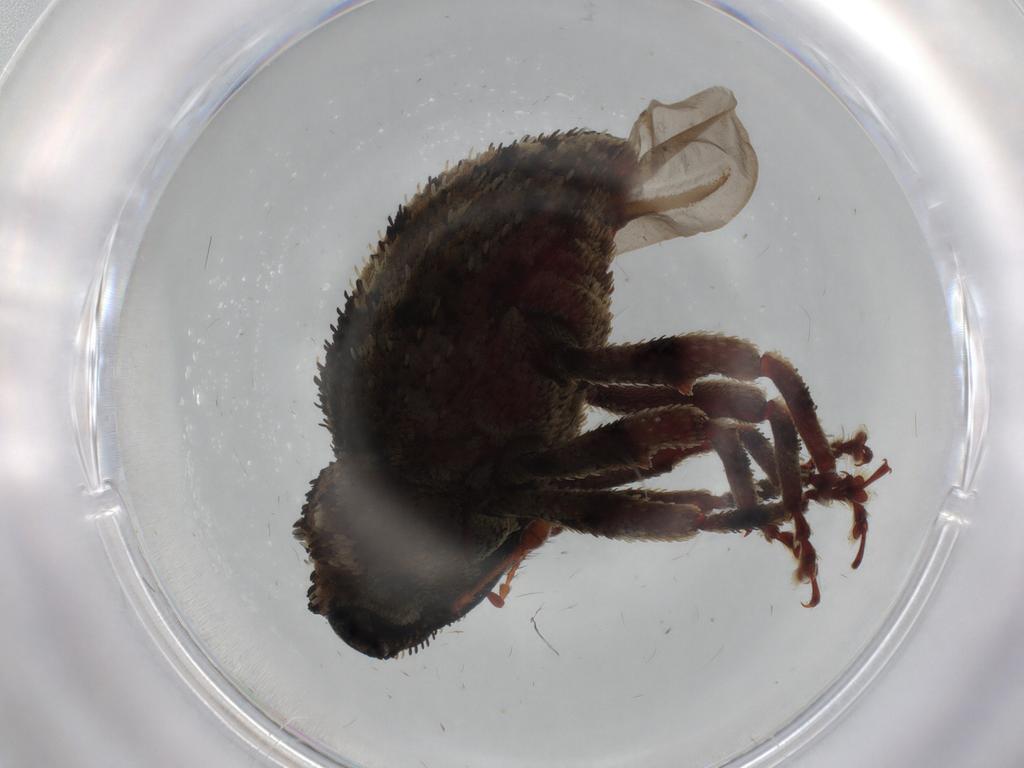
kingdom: Animalia
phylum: Arthropoda
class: Insecta
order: Coleoptera
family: Curculionidae
